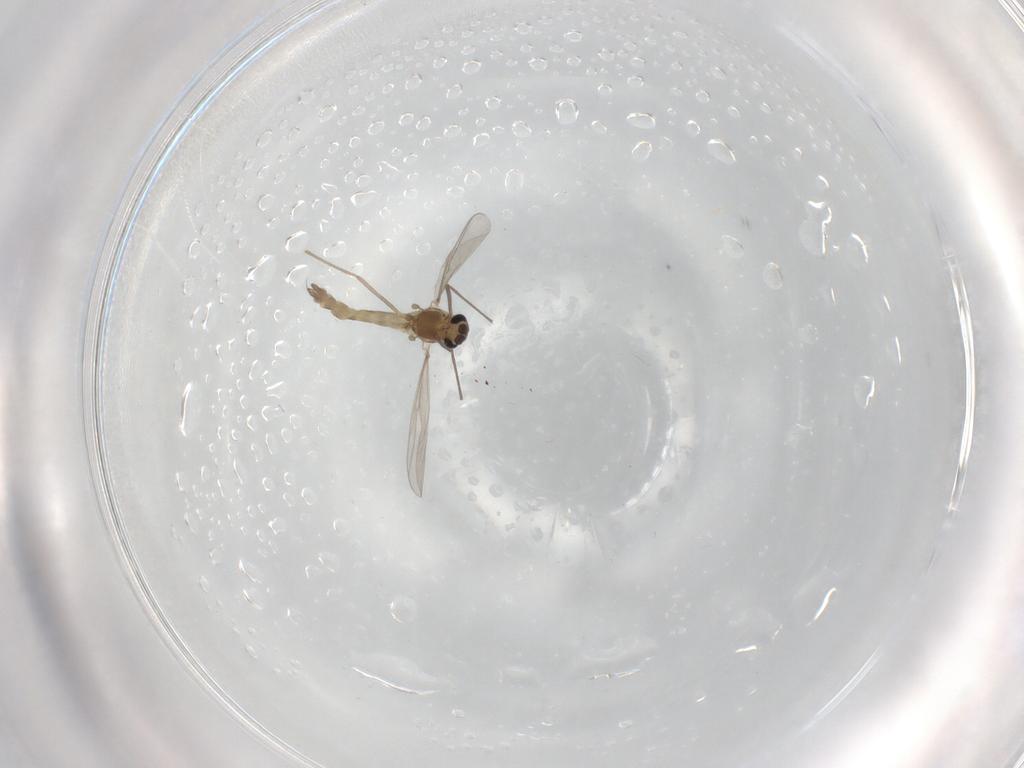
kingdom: Animalia
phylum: Arthropoda
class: Insecta
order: Diptera
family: Chironomidae
